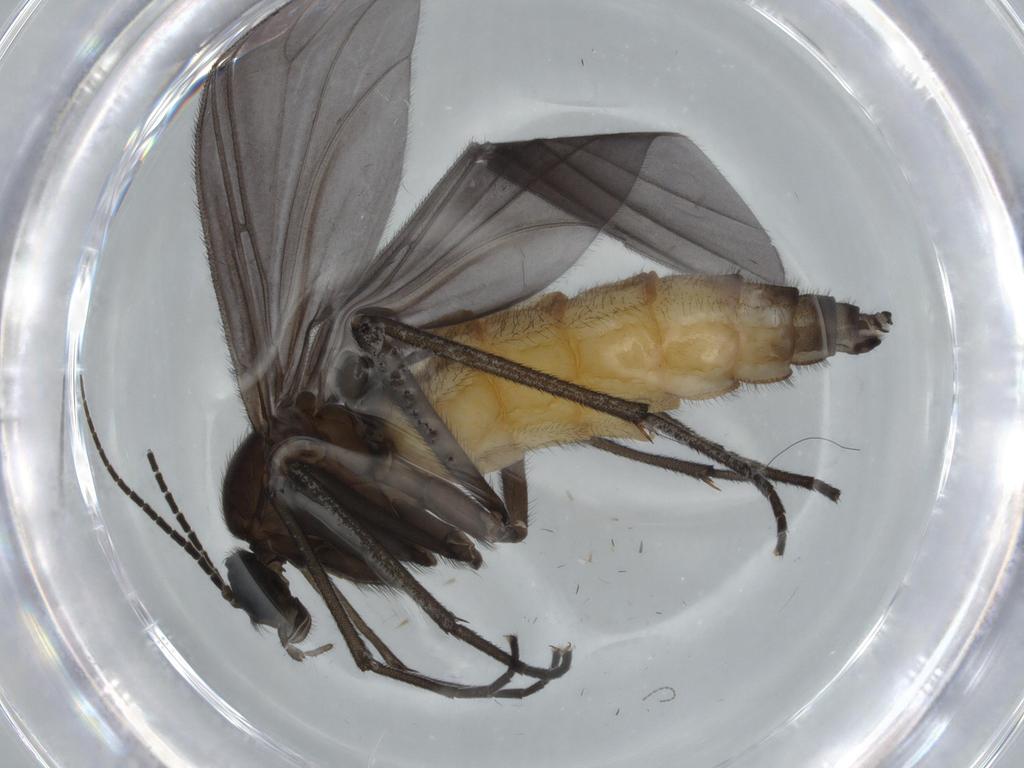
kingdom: Animalia
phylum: Arthropoda
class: Insecta
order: Diptera
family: Cecidomyiidae
